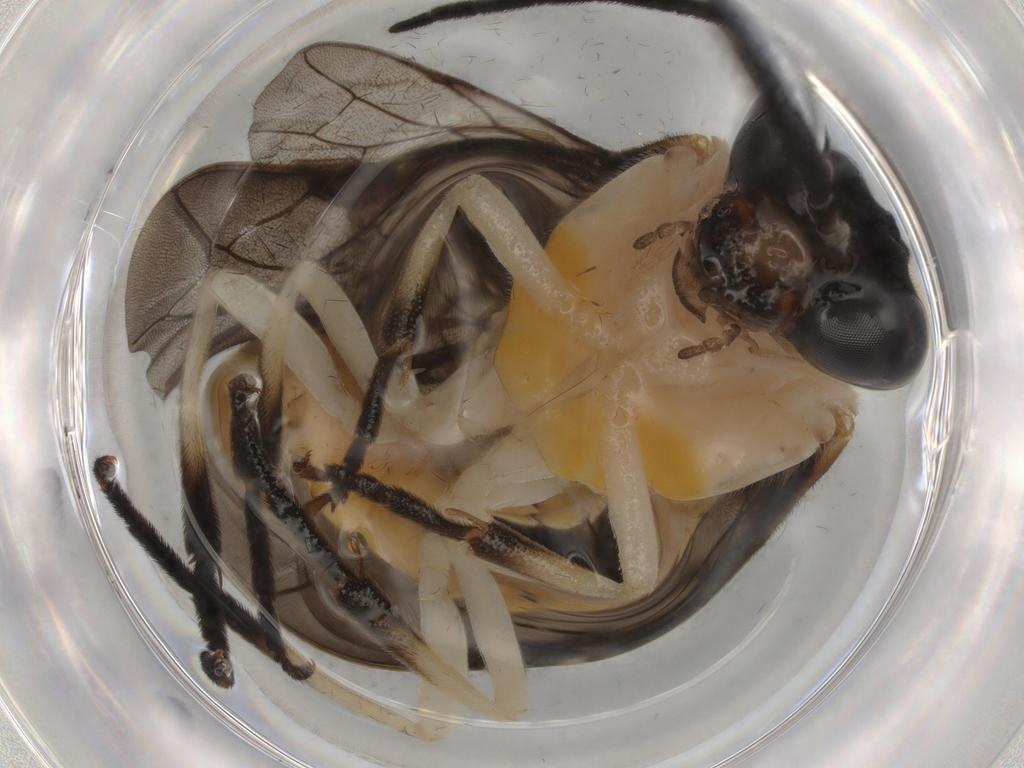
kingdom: Animalia
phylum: Arthropoda
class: Insecta
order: Hymenoptera
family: Tenthredinidae
